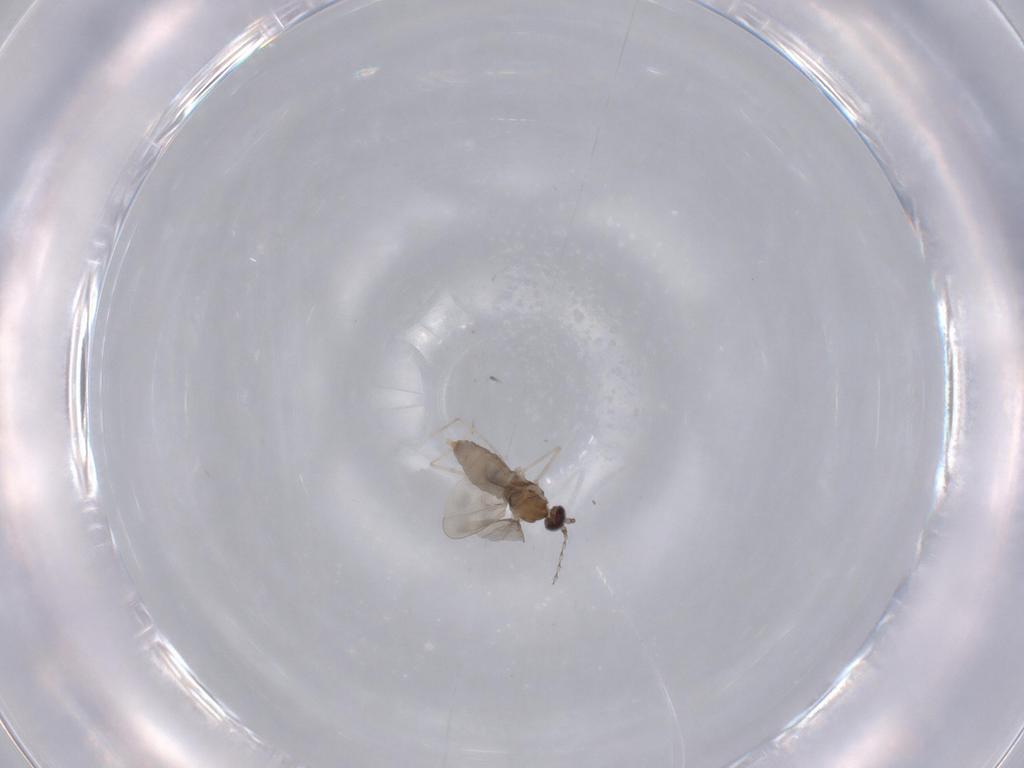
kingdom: Animalia
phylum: Arthropoda
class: Insecta
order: Diptera
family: Cecidomyiidae
